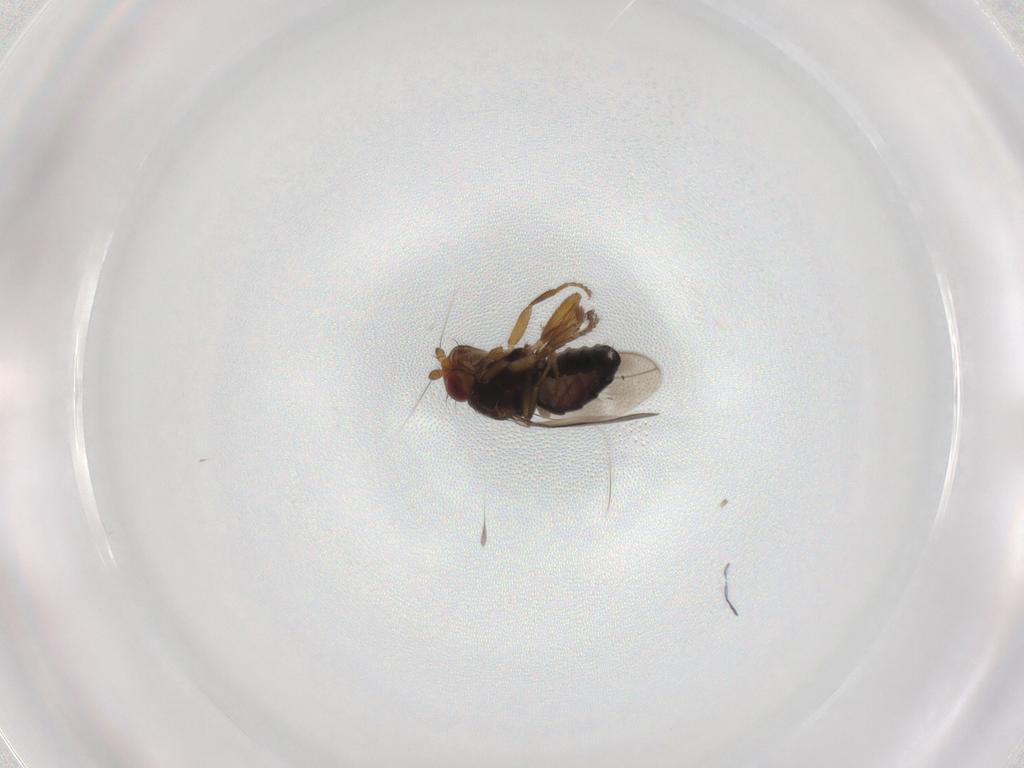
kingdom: Animalia
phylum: Arthropoda
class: Insecta
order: Diptera
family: Sphaeroceridae
